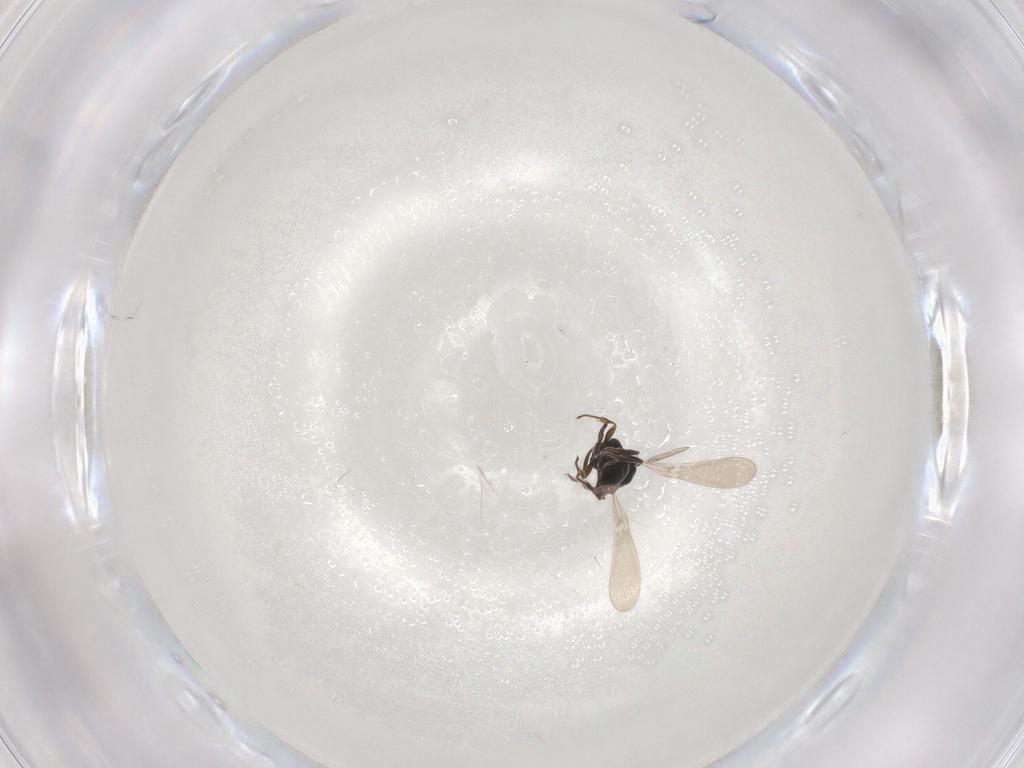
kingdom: Animalia
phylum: Arthropoda
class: Insecta
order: Hymenoptera
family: Platygastridae
